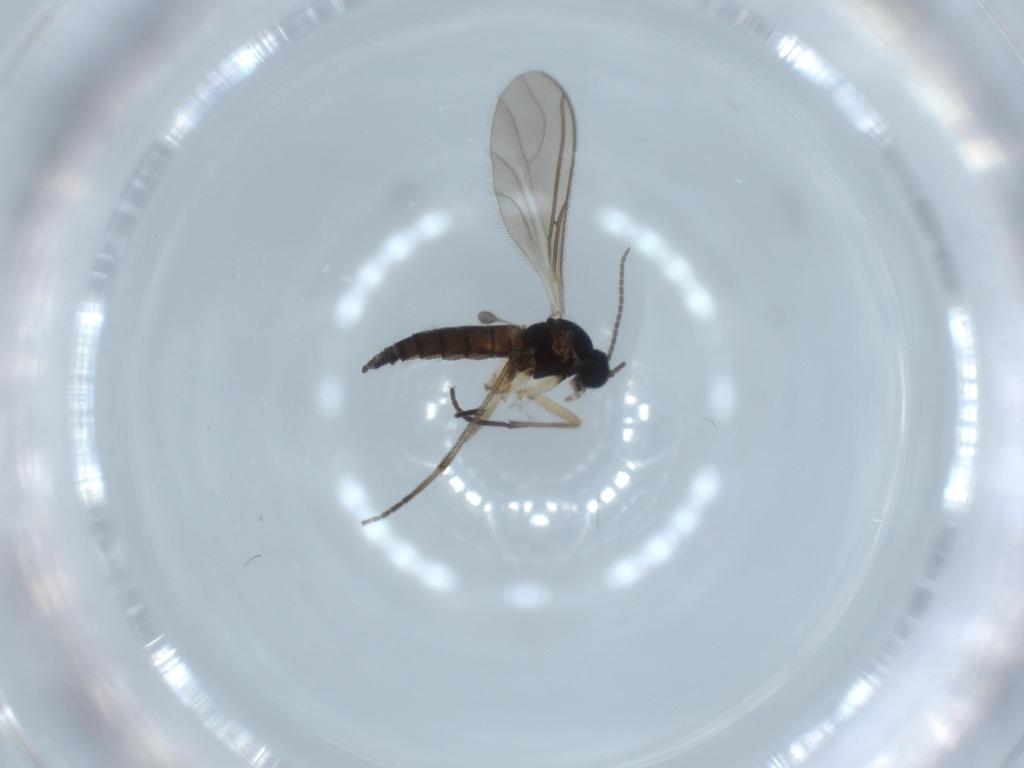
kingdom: Animalia
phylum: Arthropoda
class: Insecta
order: Diptera
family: Sciaridae
